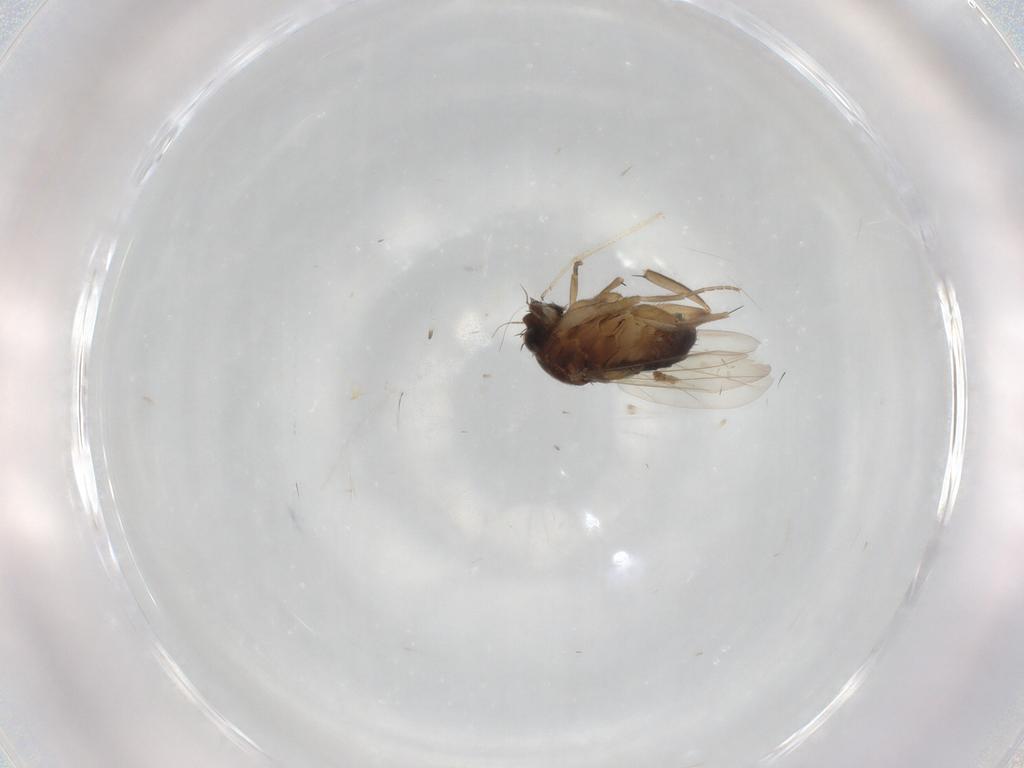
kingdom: Animalia
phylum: Arthropoda
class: Insecta
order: Diptera
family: Phoridae
